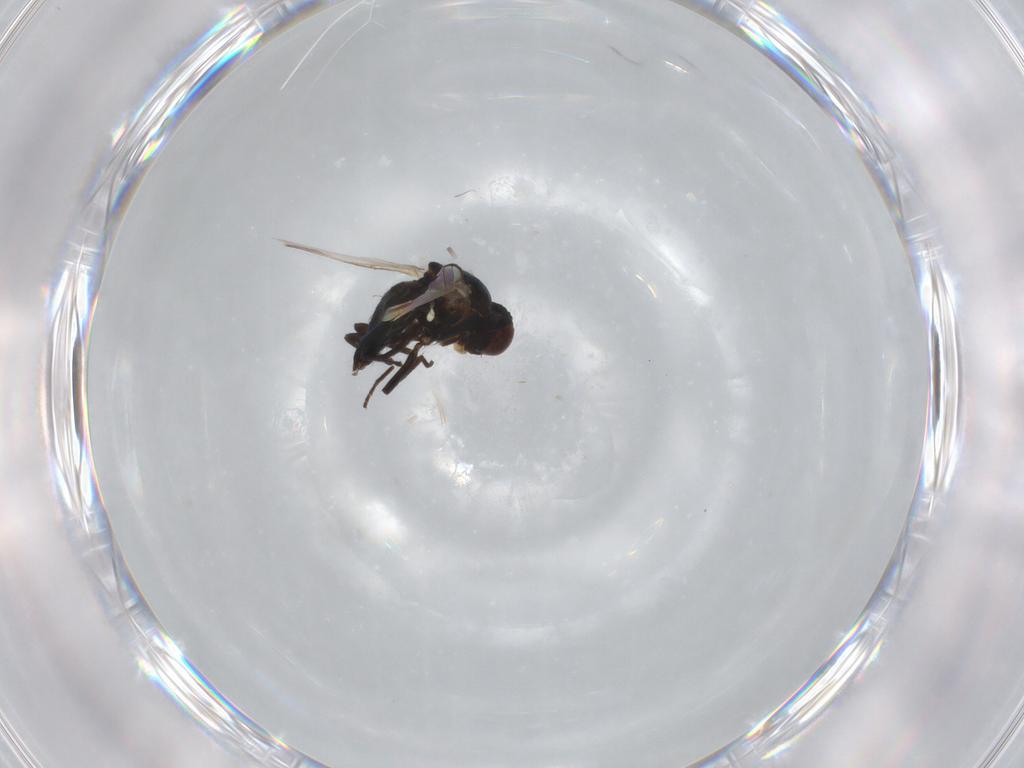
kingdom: Animalia
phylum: Arthropoda
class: Insecta
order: Diptera
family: Agromyzidae
